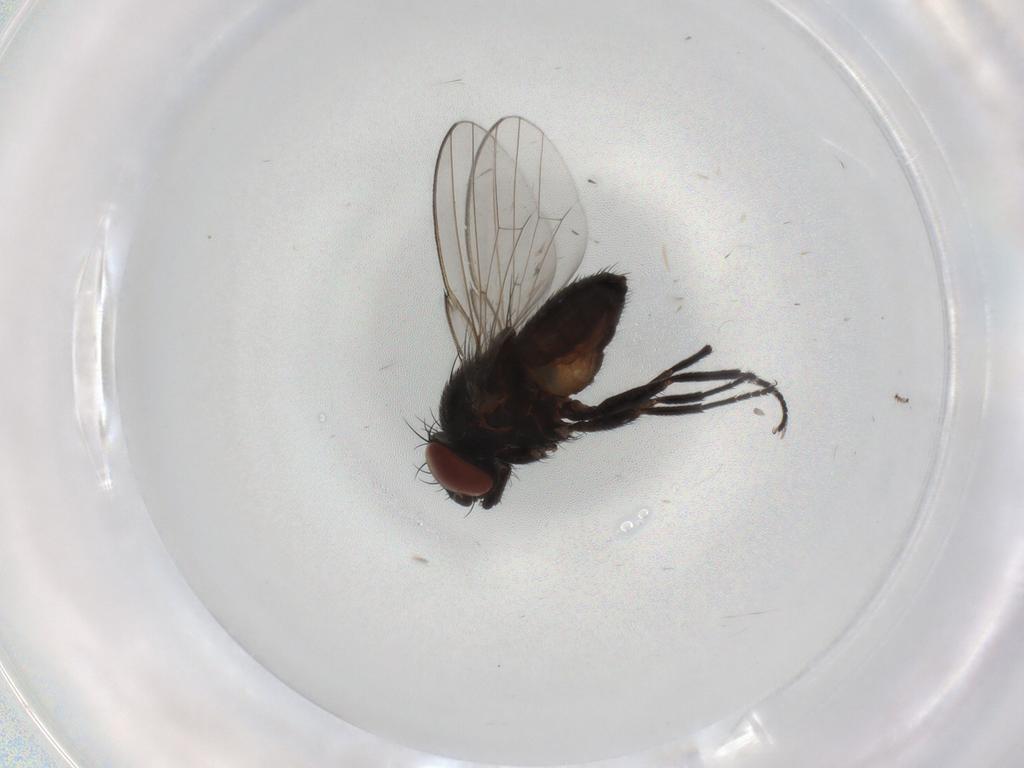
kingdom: Animalia
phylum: Arthropoda
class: Insecta
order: Diptera
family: Milichiidae
